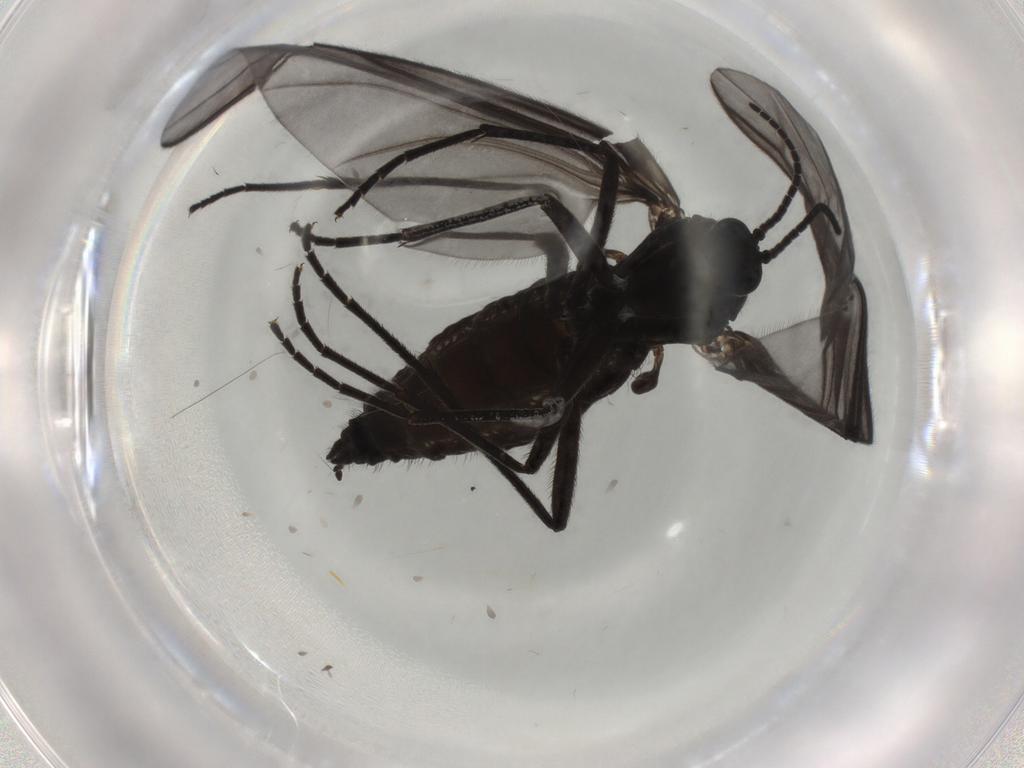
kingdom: Animalia
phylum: Arthropoda
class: Insecta
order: Diptera
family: Chironomidae
